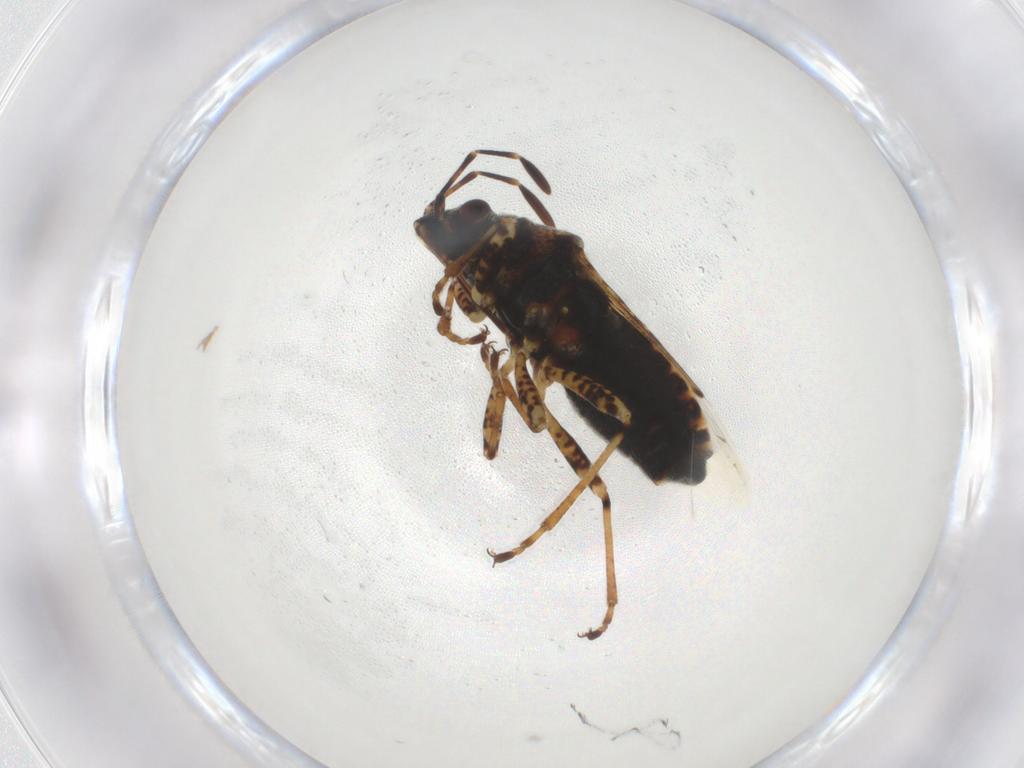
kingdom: Animalia
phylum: Arthropoda
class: Insecta
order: Hemiptera
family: Lygaeidae
